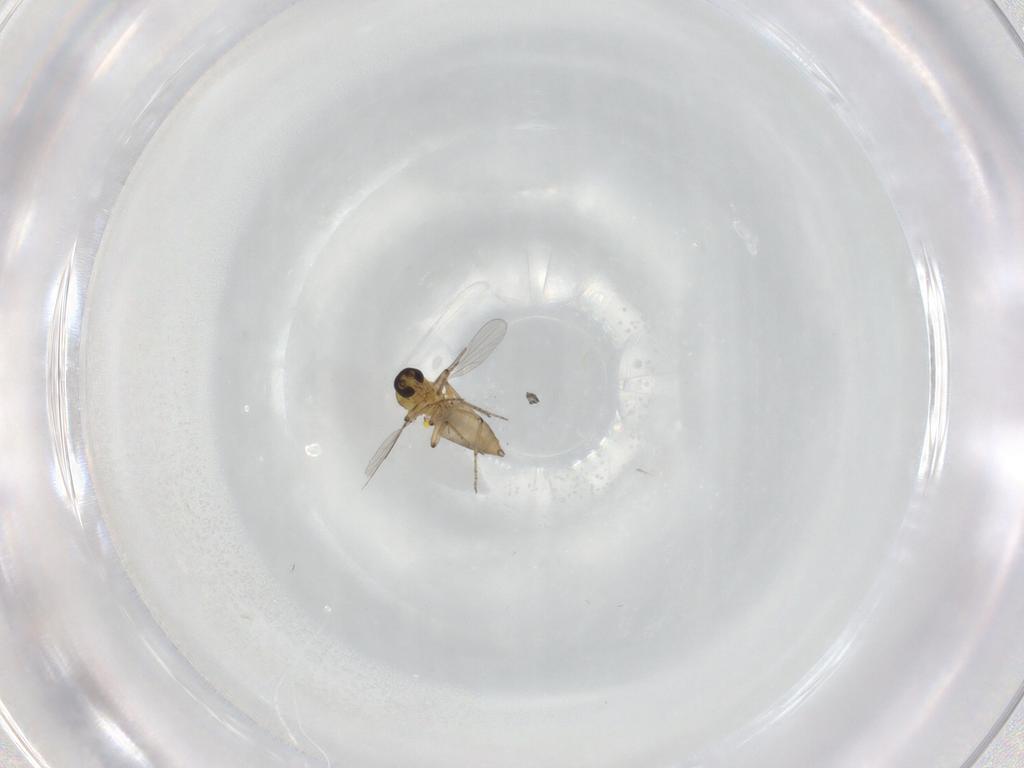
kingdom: Animalia
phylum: Arthropoda
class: Insecta
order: Diptera
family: Ceratopogonidae
